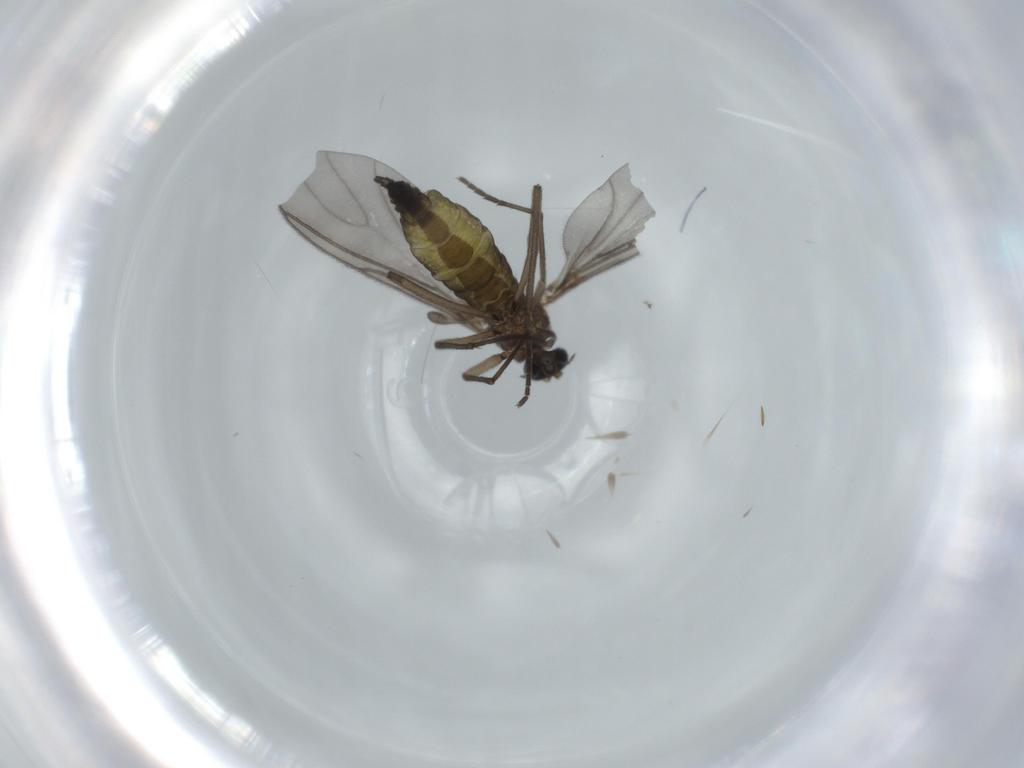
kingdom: Animalia
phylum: Arthropoda
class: Insecta
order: Diptera
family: Sciaridae
